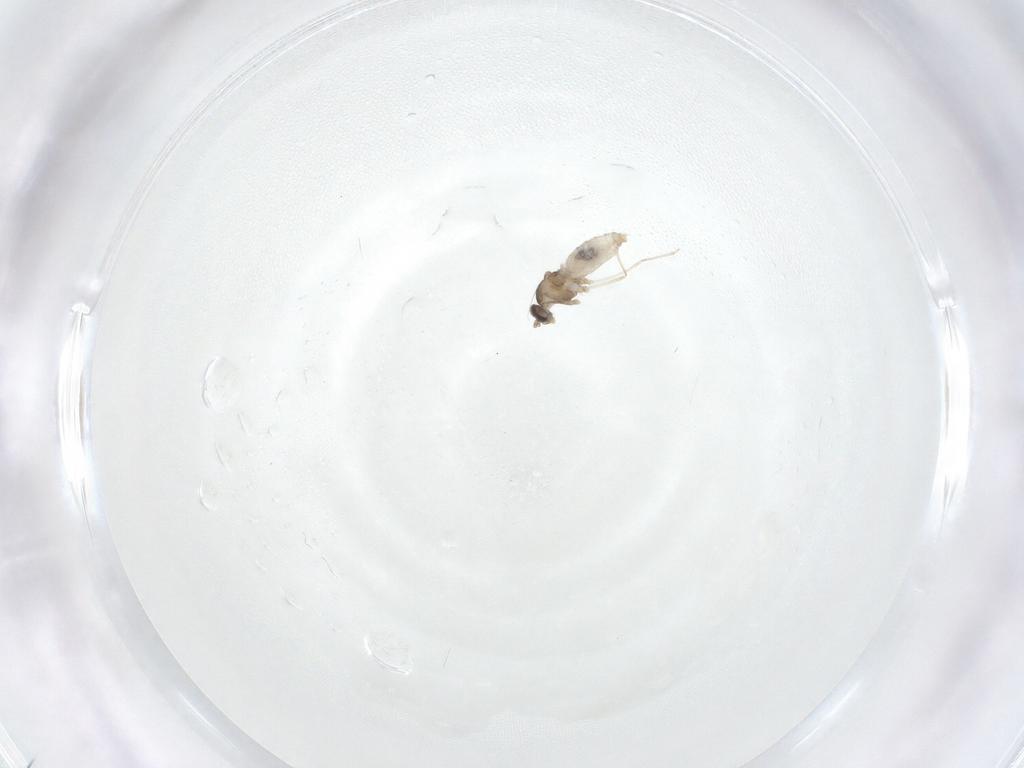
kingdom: Animalia
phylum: Arthropoda
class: Insecta
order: Diptera
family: Cecidomyiidae
